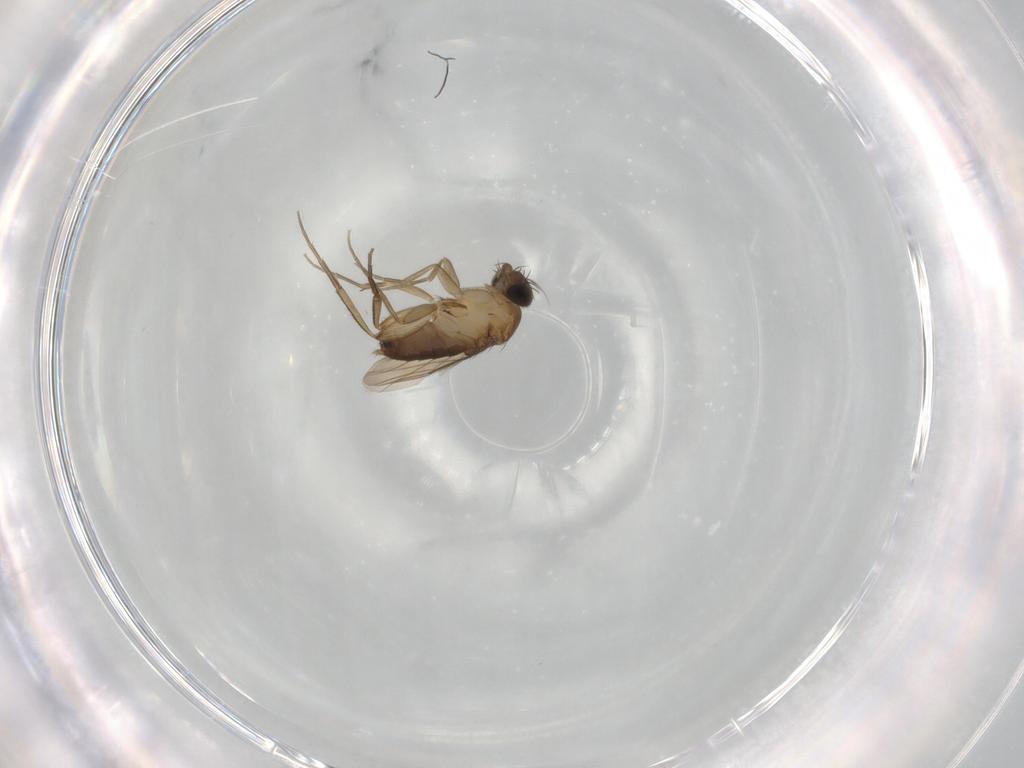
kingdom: Animalia
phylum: Arthropoda
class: Insecta
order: Diptera
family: Phoridae
